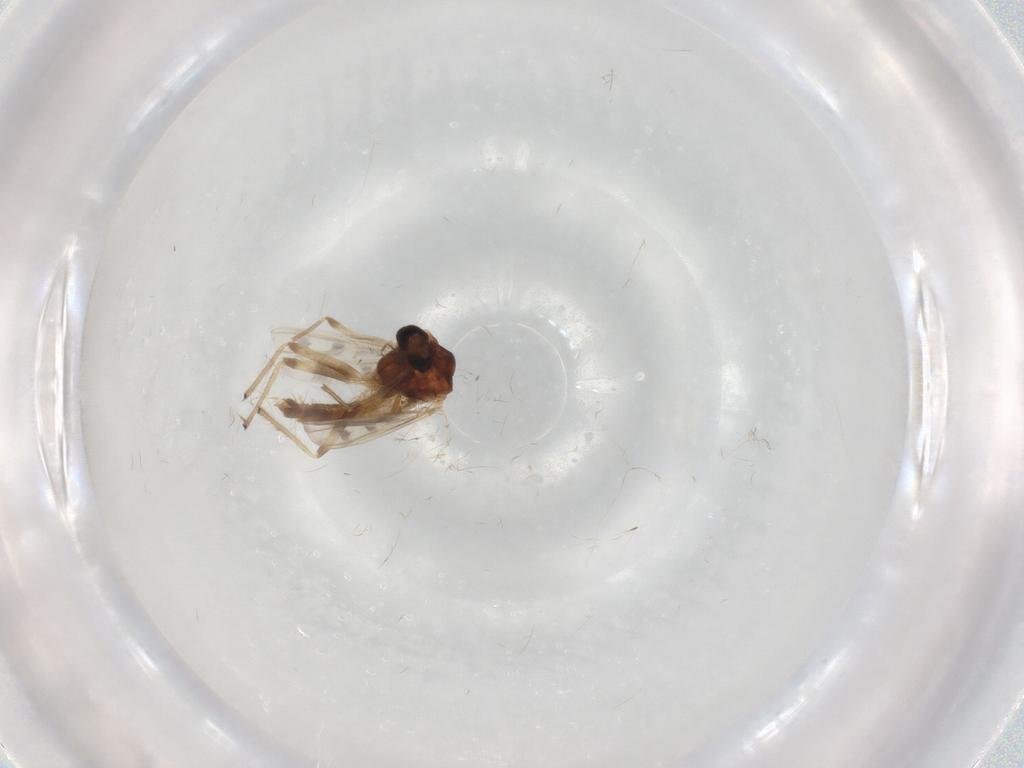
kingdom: Animalia
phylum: Arthropoda
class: Insecta
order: Diptera
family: Chironomidae
